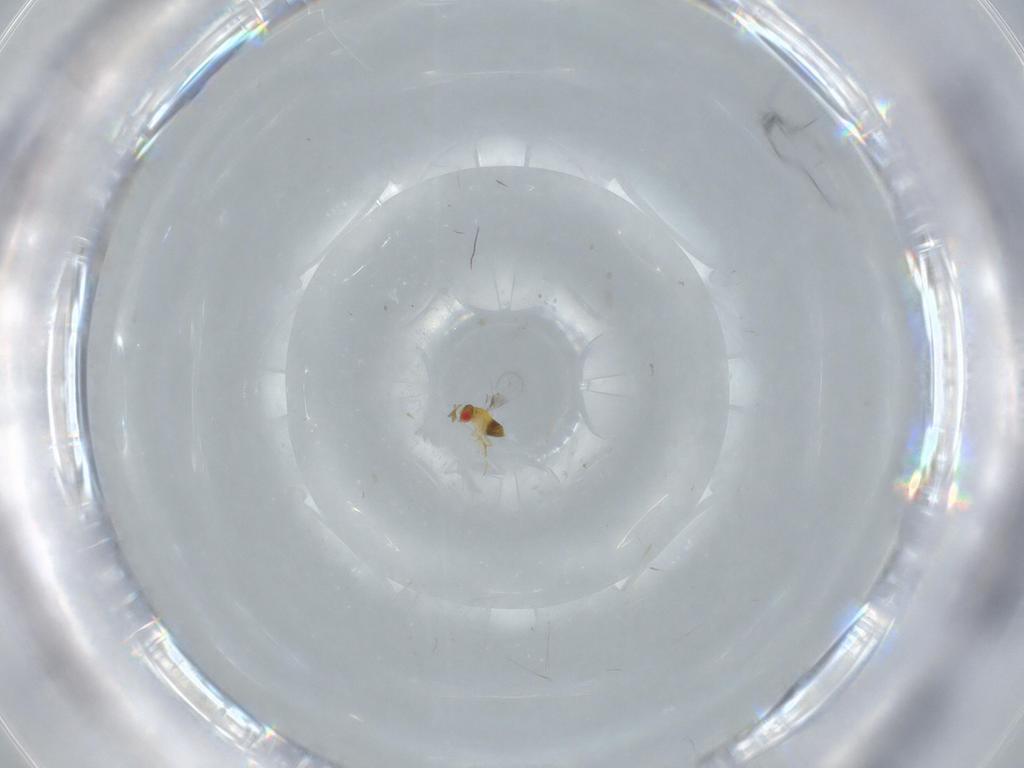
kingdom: Animalia
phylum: Arthropoda
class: Insecta
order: Hymenoptera
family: Trichogrammatidae
